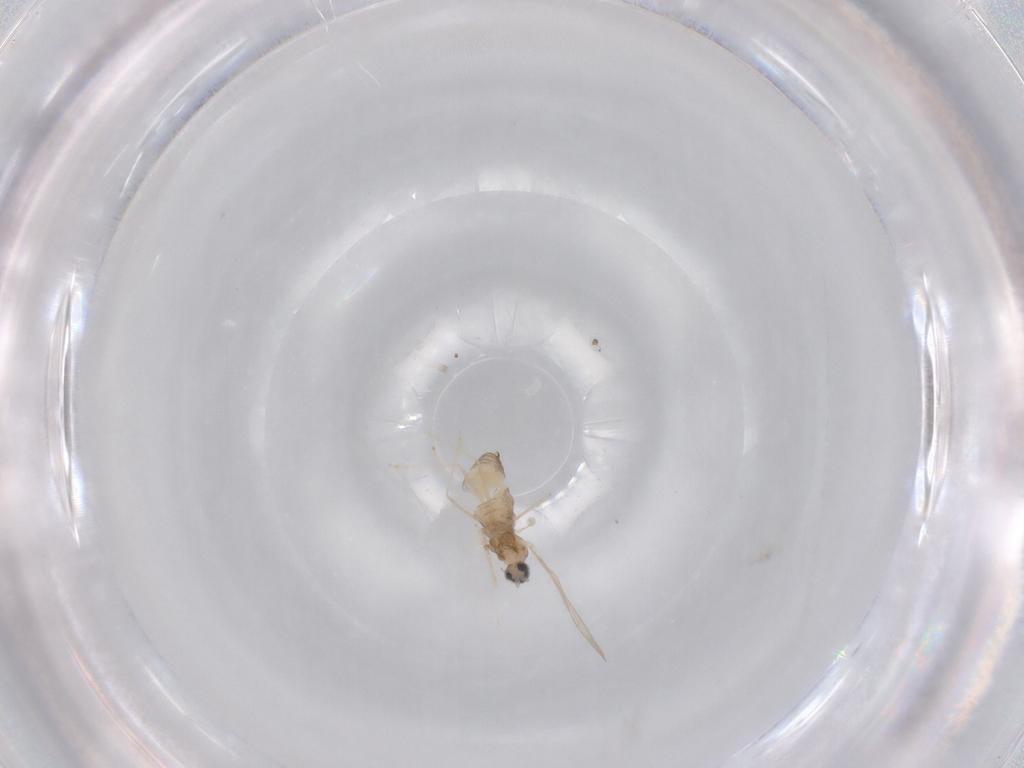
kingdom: Animalia
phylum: Arthropoda
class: Insecta
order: Diptera
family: Cecidomyiidae
